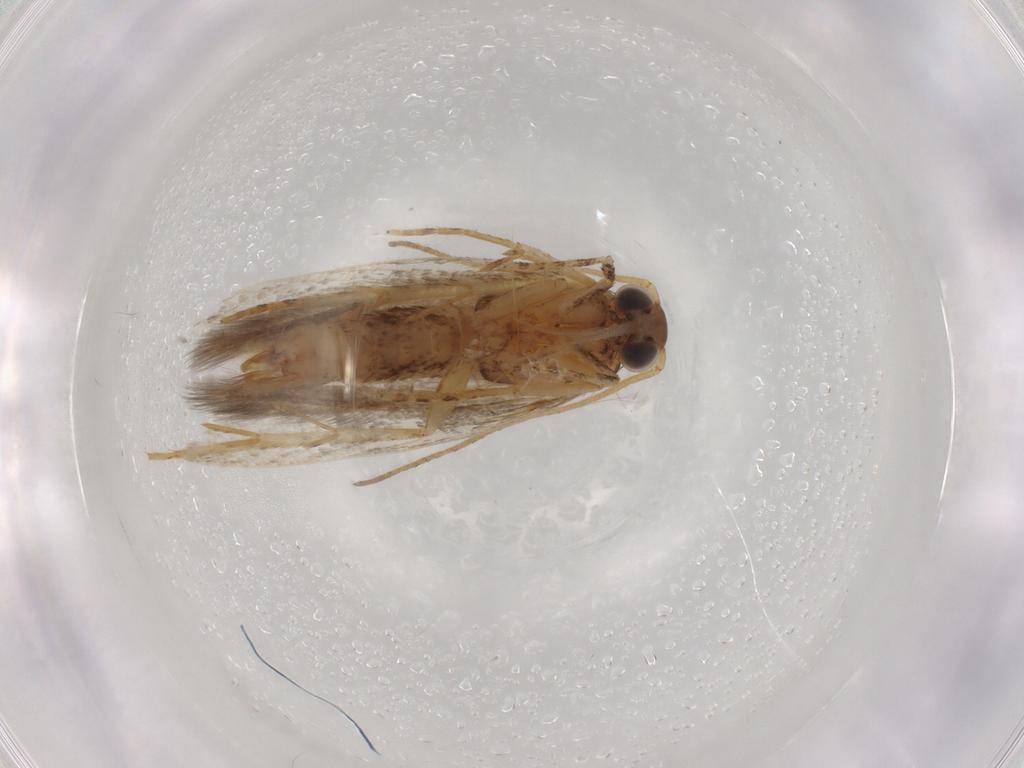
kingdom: Animalia
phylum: Arthropoda
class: Insecta
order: Lepidoptera
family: Plutellidae
